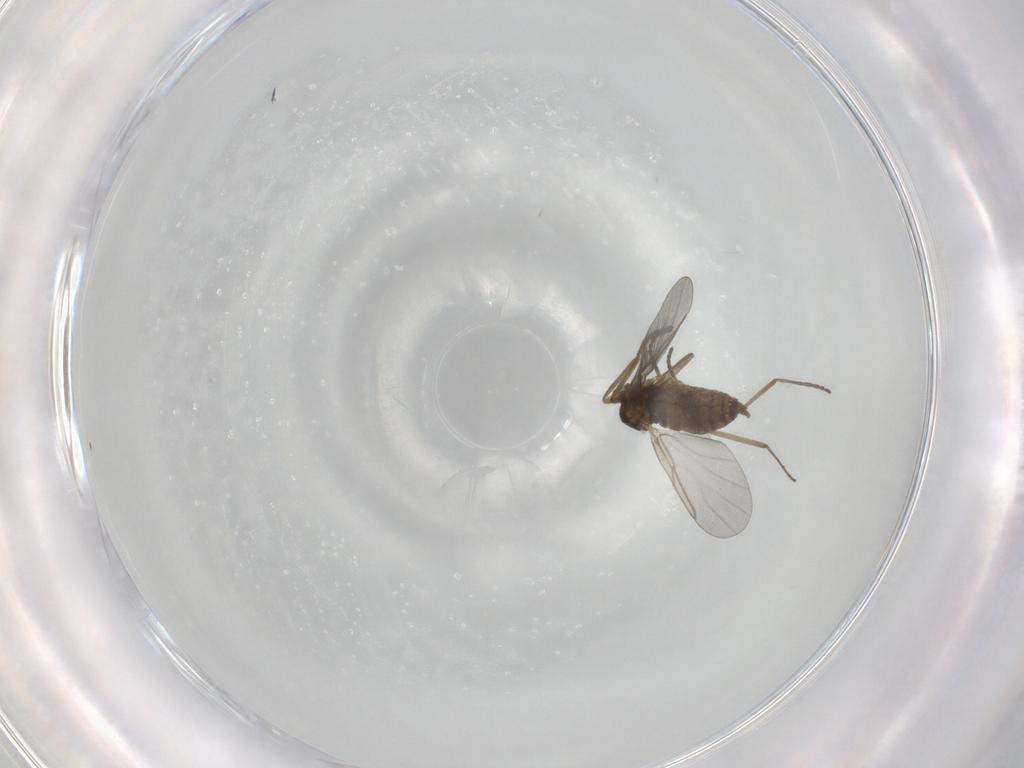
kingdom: Animalia
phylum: Arthropoda
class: Insecta
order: Diptera
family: Cecidomyiidae
